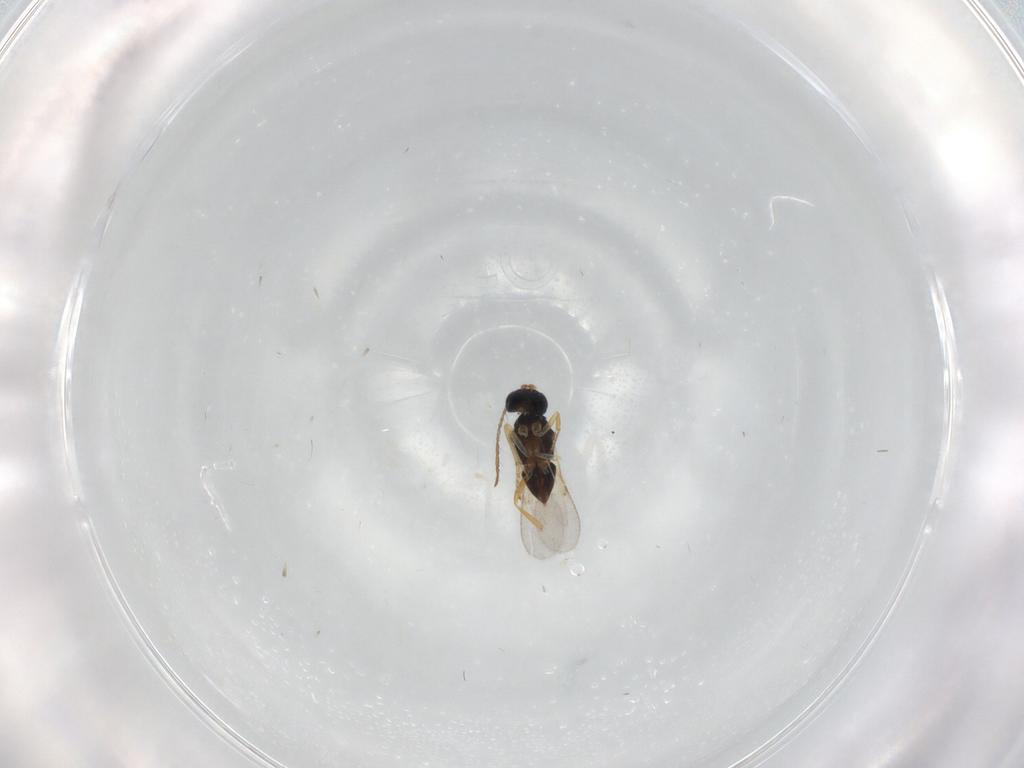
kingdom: Animalia
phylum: Arthropoda
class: Insecta
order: Hymenoptera
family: Encyrtidae
